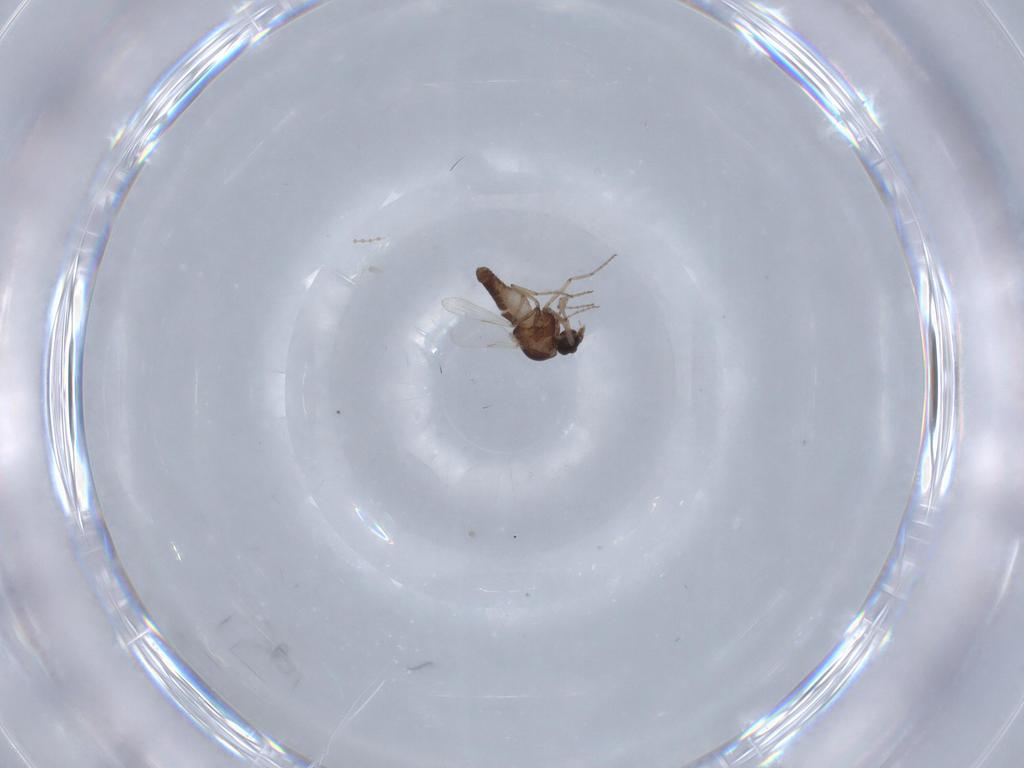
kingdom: Animalia
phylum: Arthropoda
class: Insecta
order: Diptera
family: Ceratopogonidae
